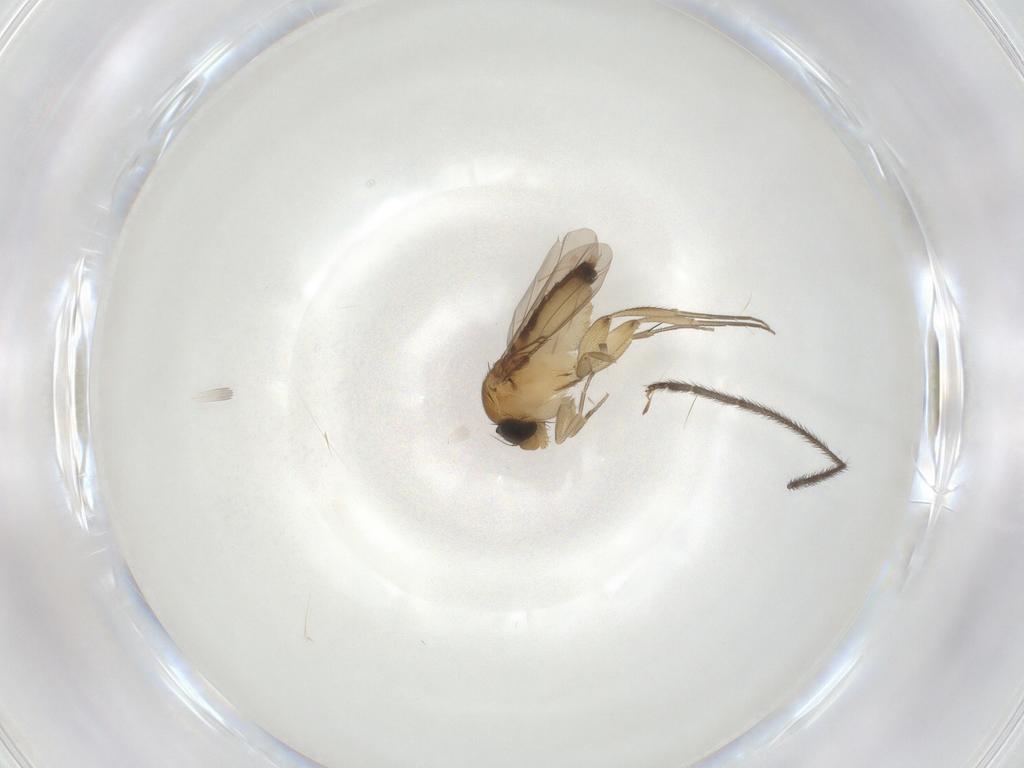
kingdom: Animalia
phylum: Arthropoda
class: Insecta
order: Diptera
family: Phoridae
